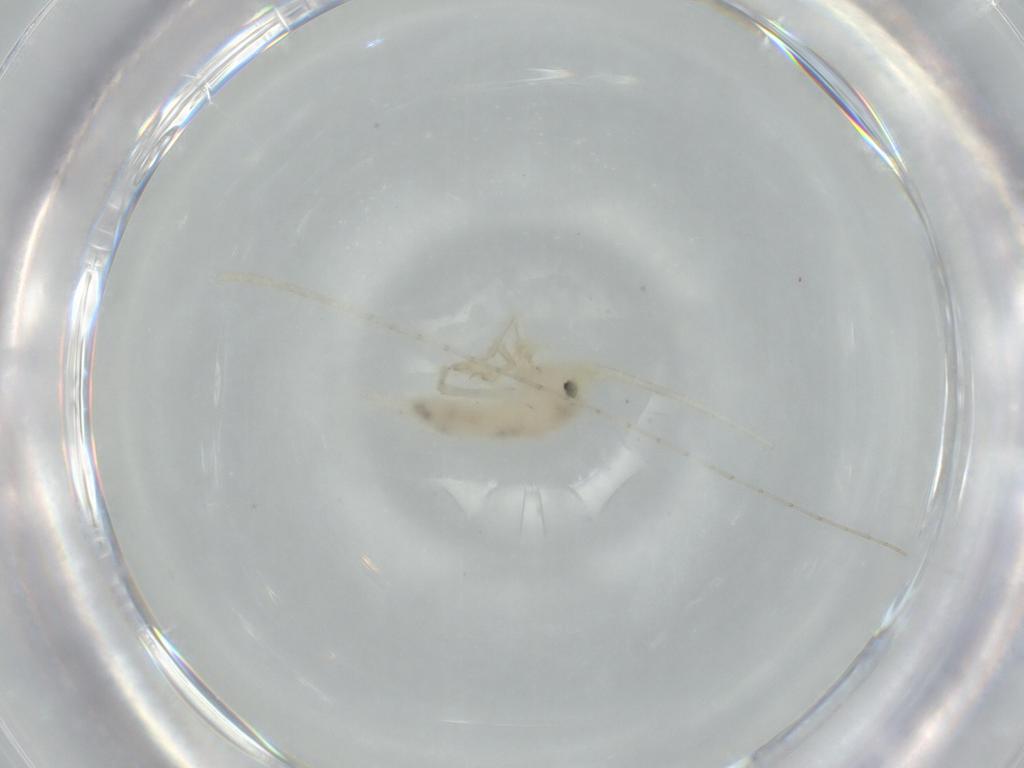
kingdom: Animalia
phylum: Arthropoda
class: Insecta
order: Orthoptera
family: Trigonidiidae
